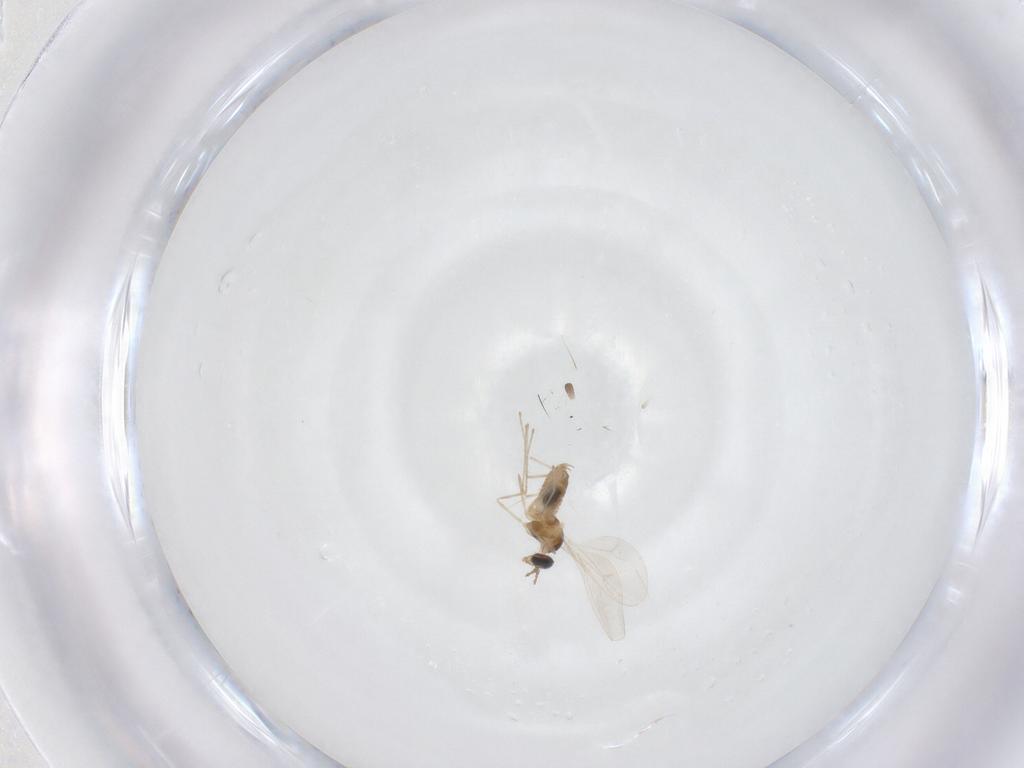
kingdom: Animalia
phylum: Arthropoda
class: Insecta
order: Diptera
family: Cecidomyiidae
